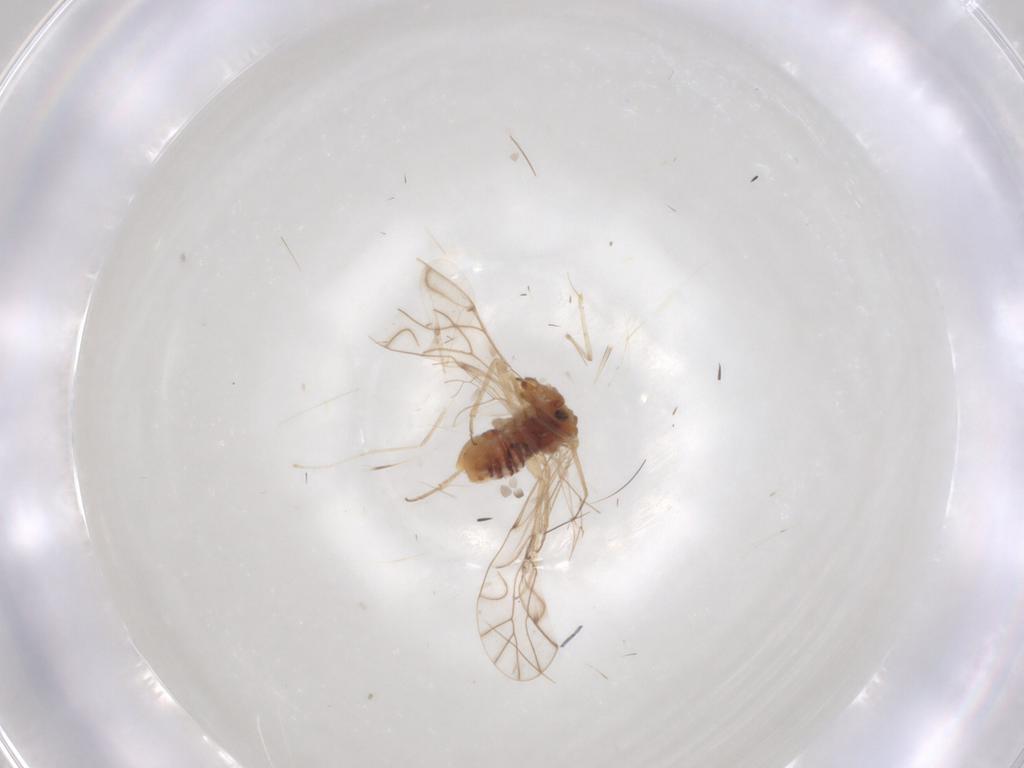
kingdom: Animalia
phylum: Arthropoda
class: Insecta
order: Psocodea
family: Lachesillidae
